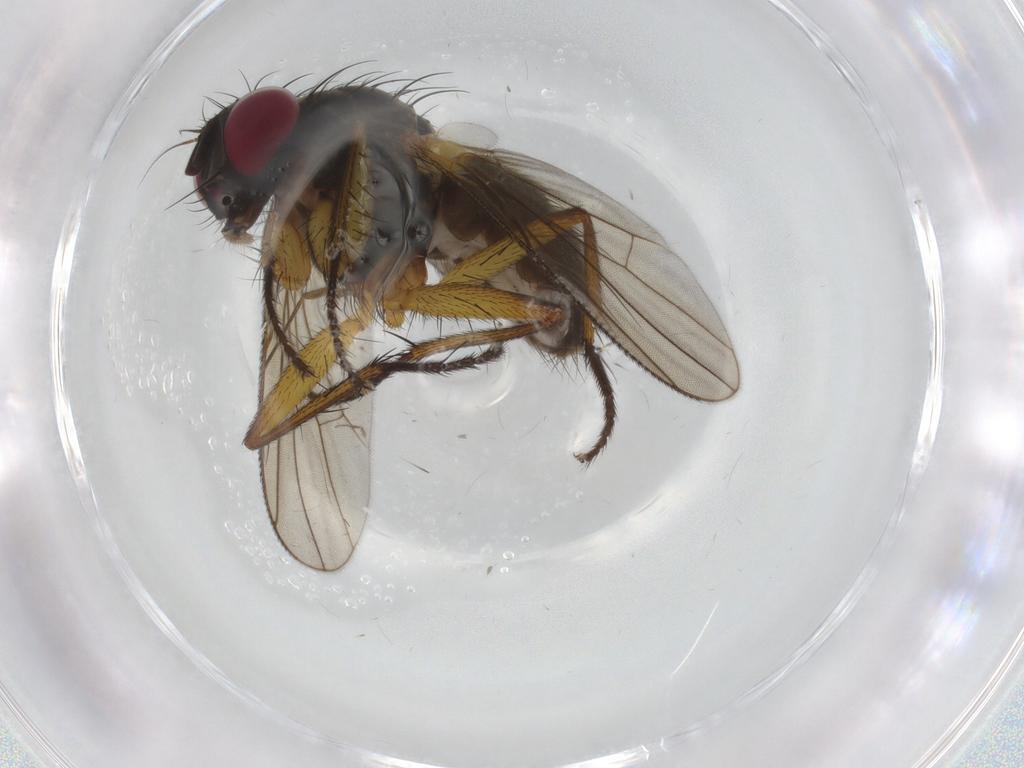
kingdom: Animalia
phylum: Arthropoda
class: Insecta
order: Diptera
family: Muscidae
